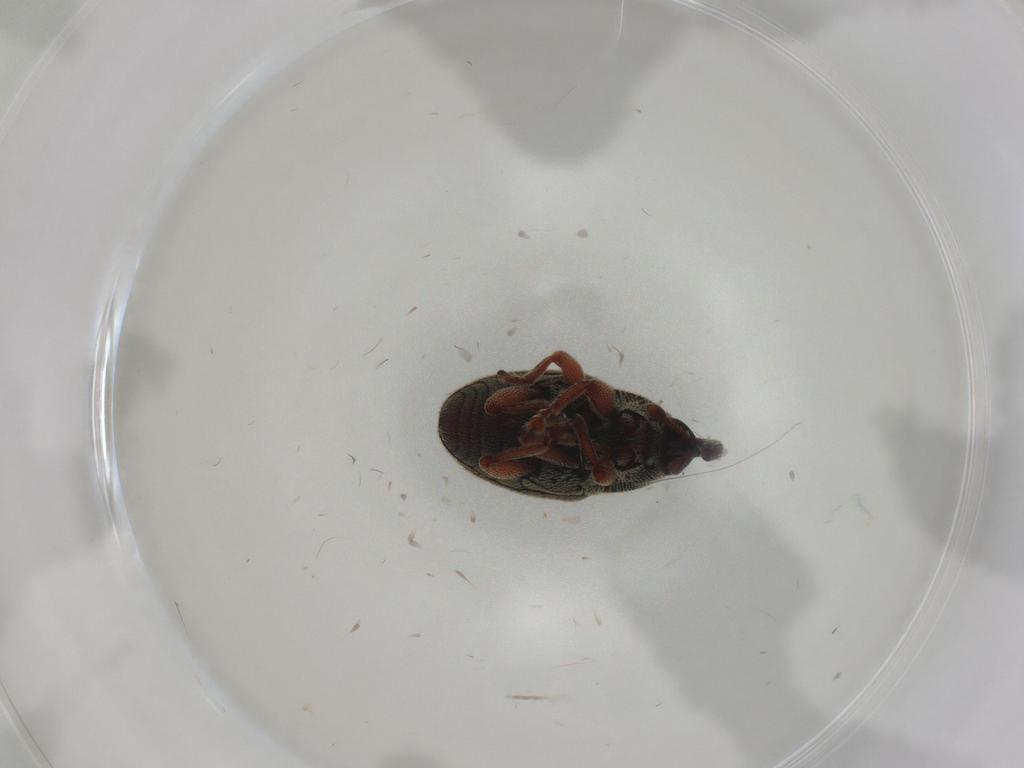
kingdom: Animalia
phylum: Arthropoda
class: Insecta
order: Coleoptera
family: Curculionidae
